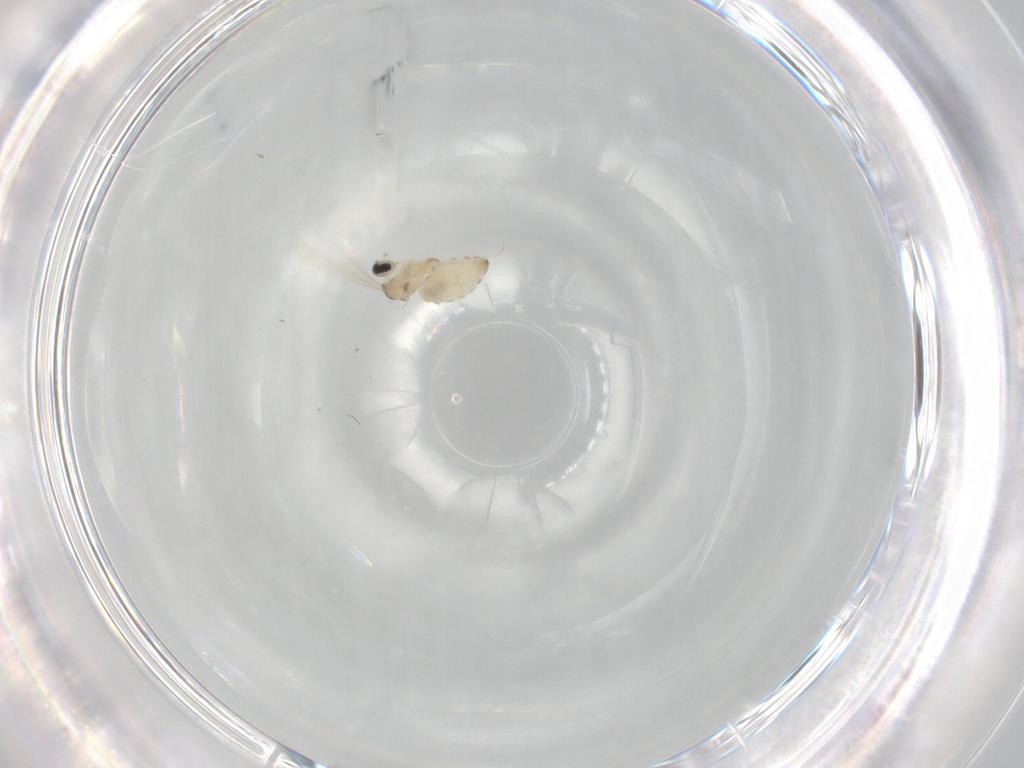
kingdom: Animalia
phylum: Arthropoda
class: Insecta
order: Diptera
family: Cecidomyiidae
